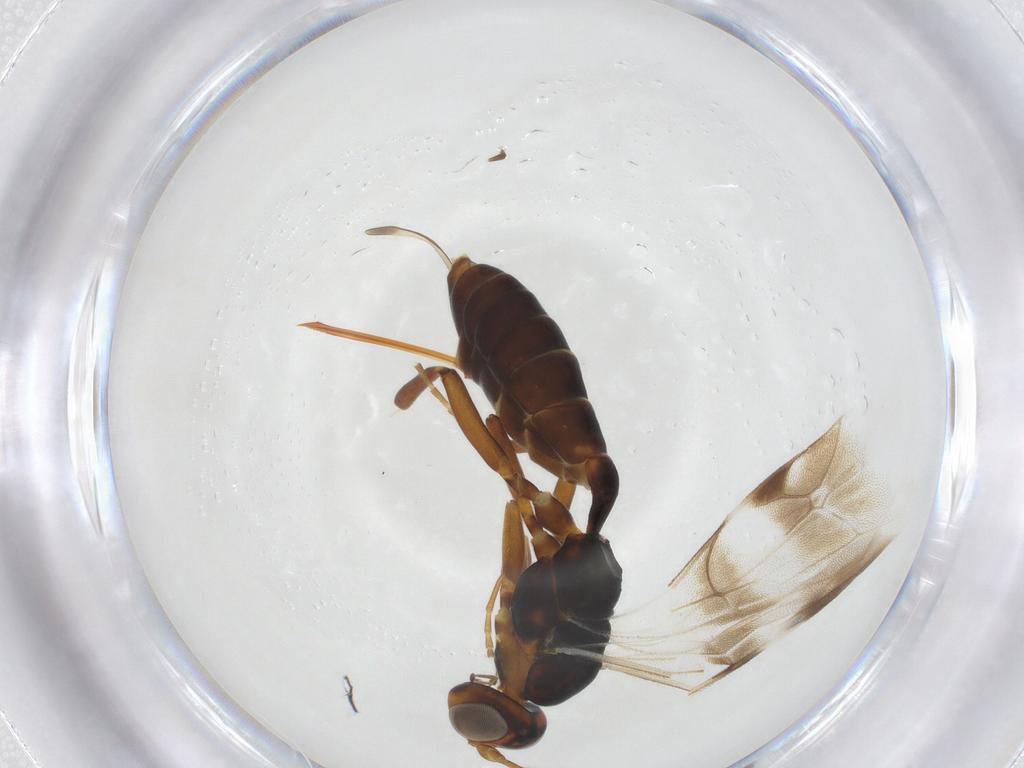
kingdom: Animalia
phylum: Arthropoda
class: Insecta
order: Hymenoptera
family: Ichneumonidae
